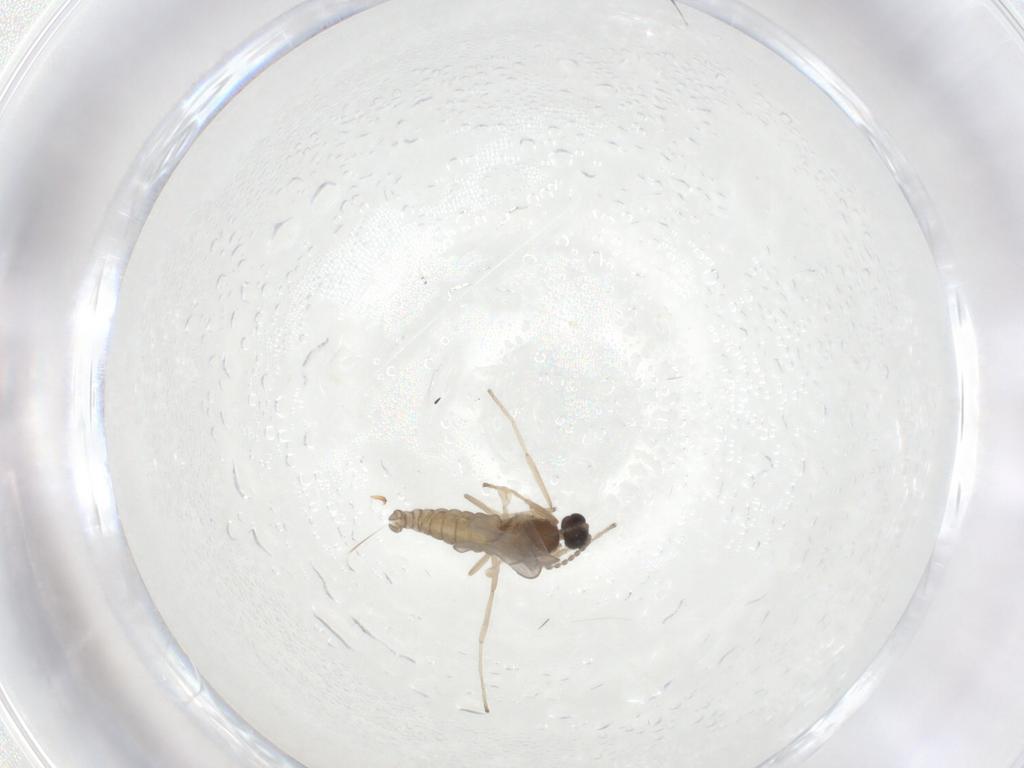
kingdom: Animalia
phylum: Arthropoda
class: Insecta
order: Diptera
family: Cecidomyiidae
